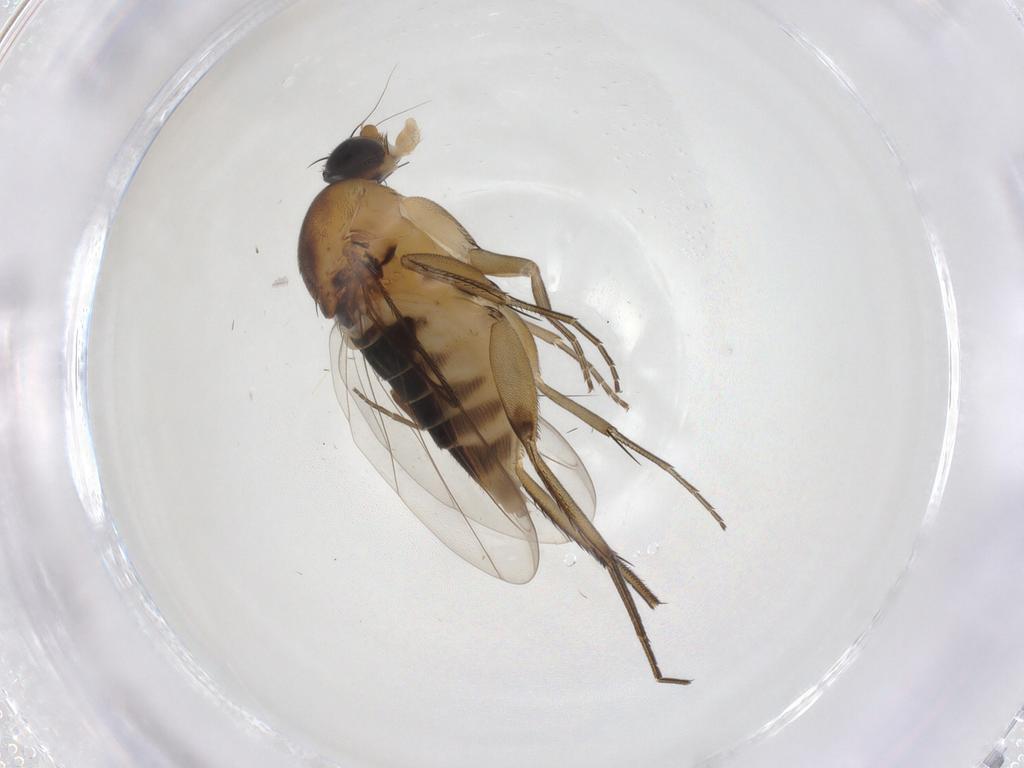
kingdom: Animalia
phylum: Arthropoda
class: Insecta
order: Diptera
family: Phoridae
